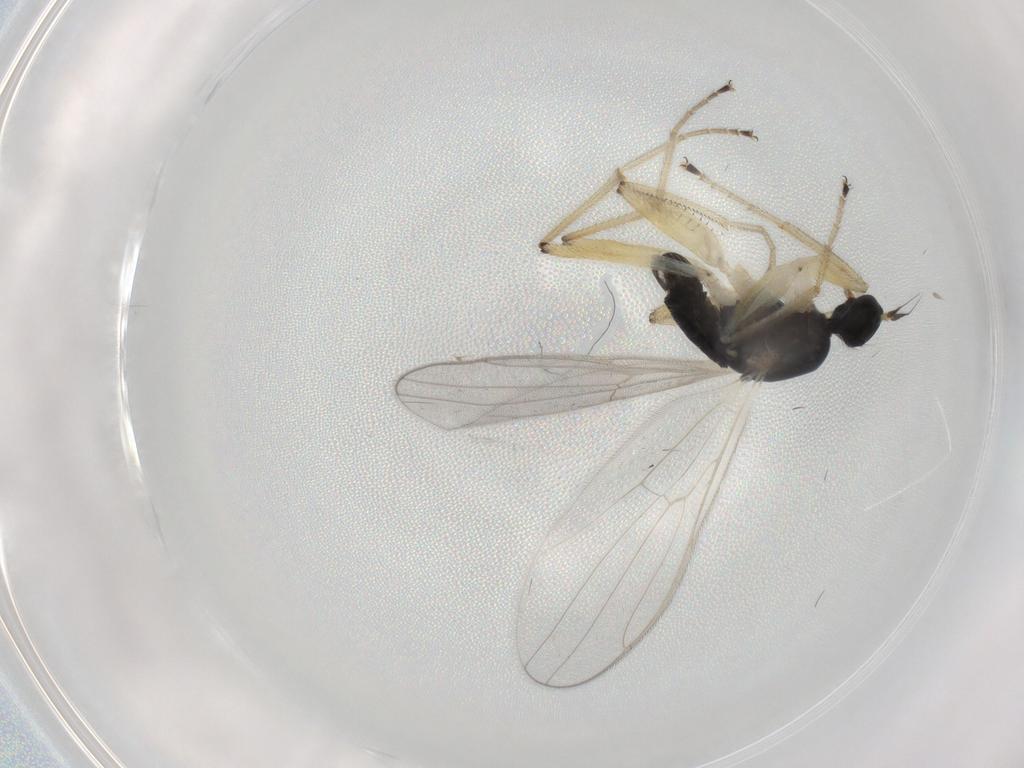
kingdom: Animalia
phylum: Arthropoda
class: Insecta
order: Diptera
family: Hybotidae
